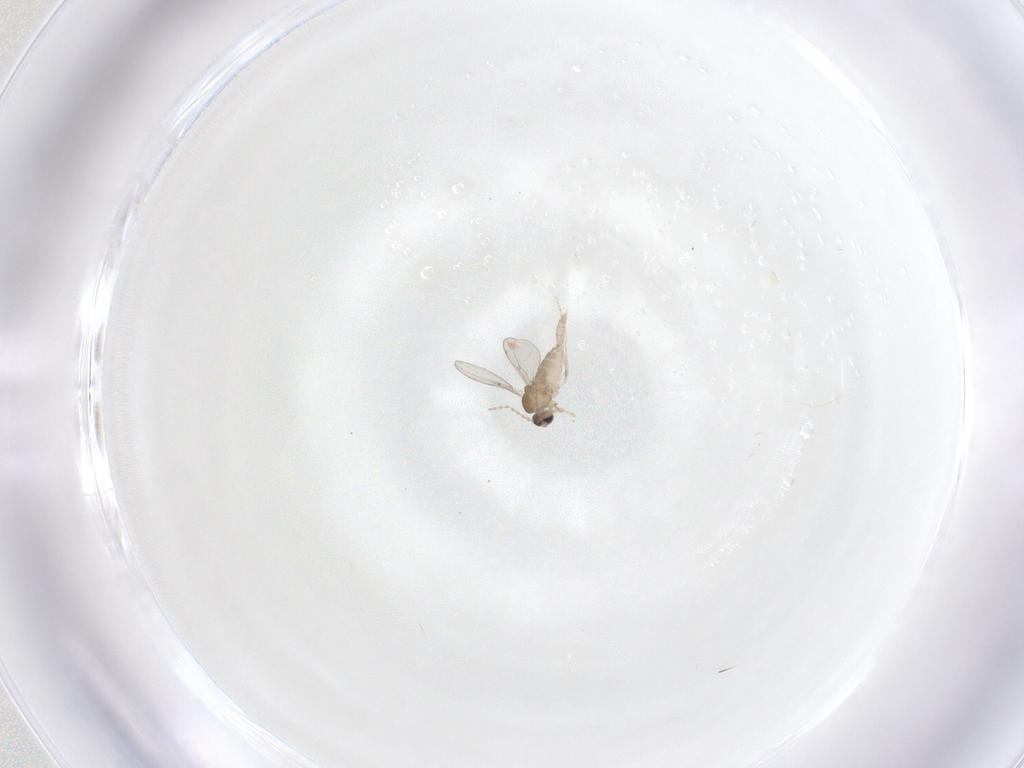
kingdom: Animalia
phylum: Arthropoda
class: Insecta
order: Diptera
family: Cecidomyiidae
